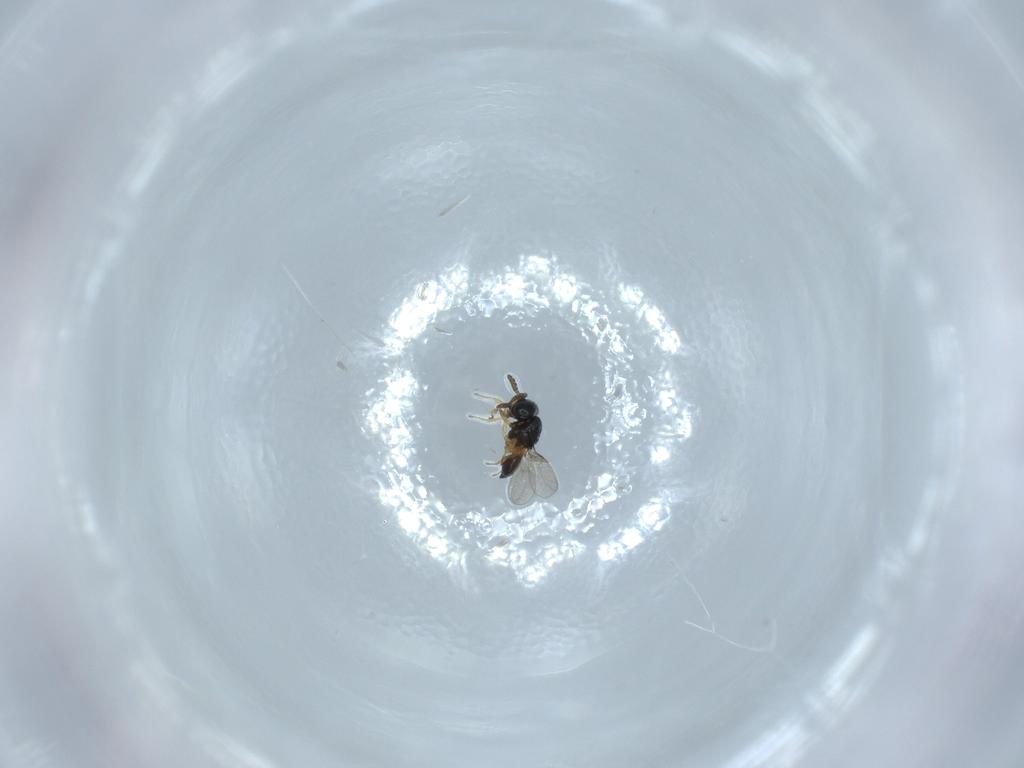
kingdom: Animalia
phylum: Arthropoda
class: Insecta
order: Hymenoptera
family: Scelionidae
